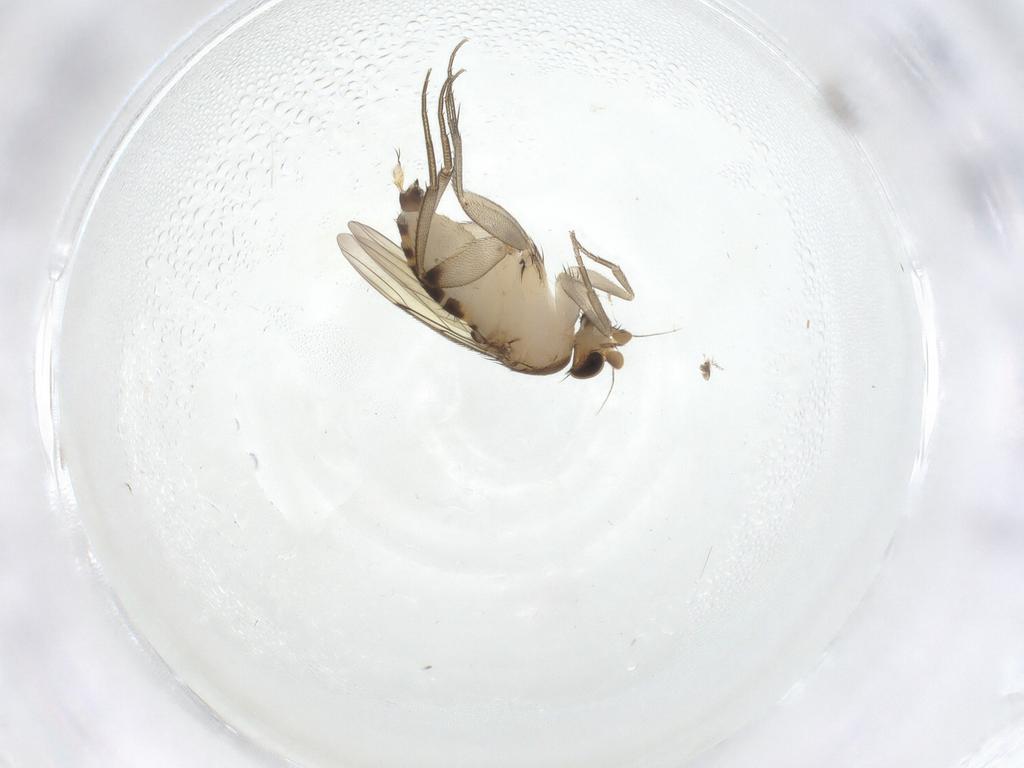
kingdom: Animalia
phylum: Arthropoda
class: Insecta
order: Diptera
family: Phoridae
